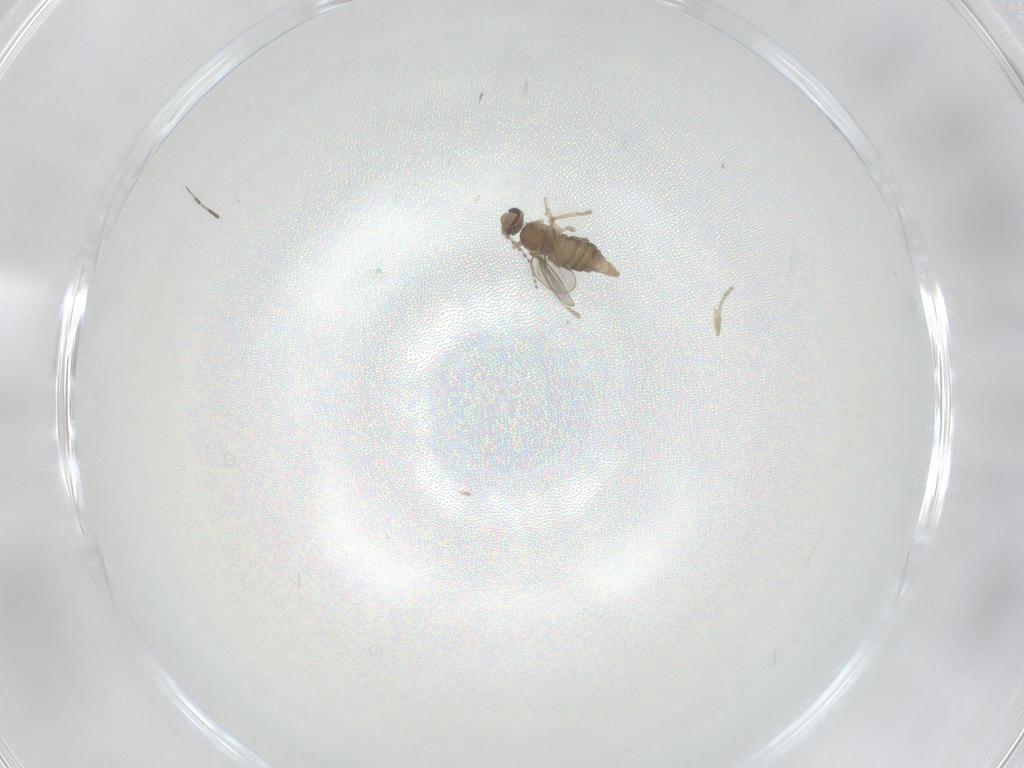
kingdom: Animalia
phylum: Arthropoda
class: Insecta
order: Diptera
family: Cecidomyiidae
